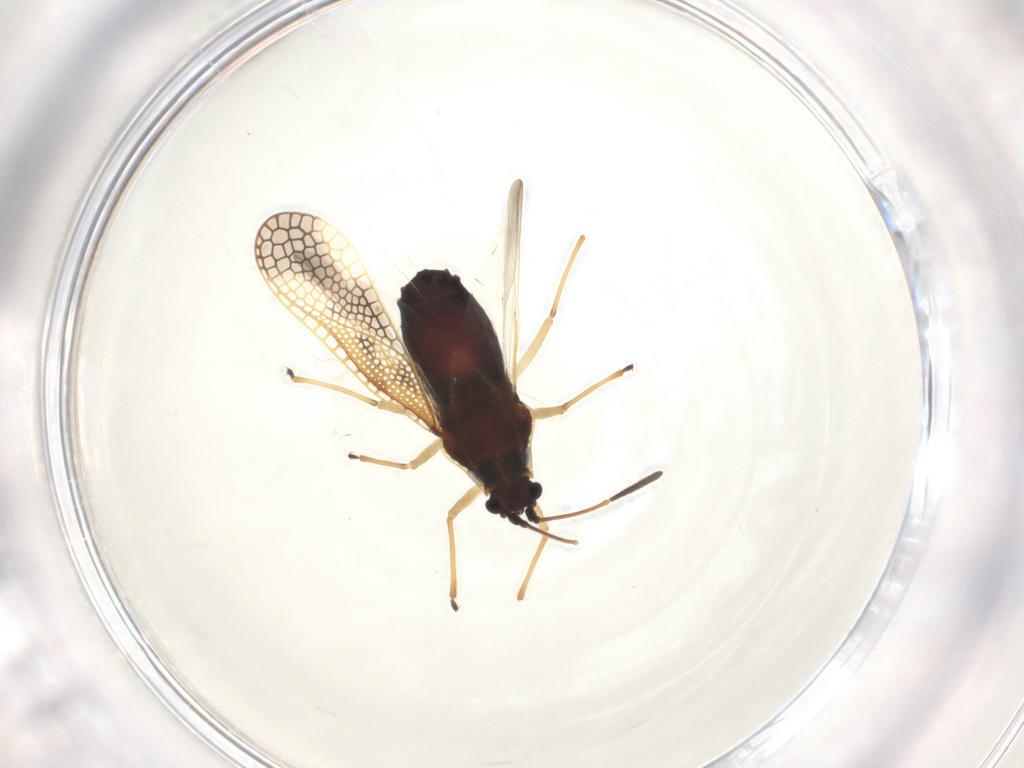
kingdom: Animalia
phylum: Arthropoda
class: Insecta
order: Hemiptera
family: Tingidae
